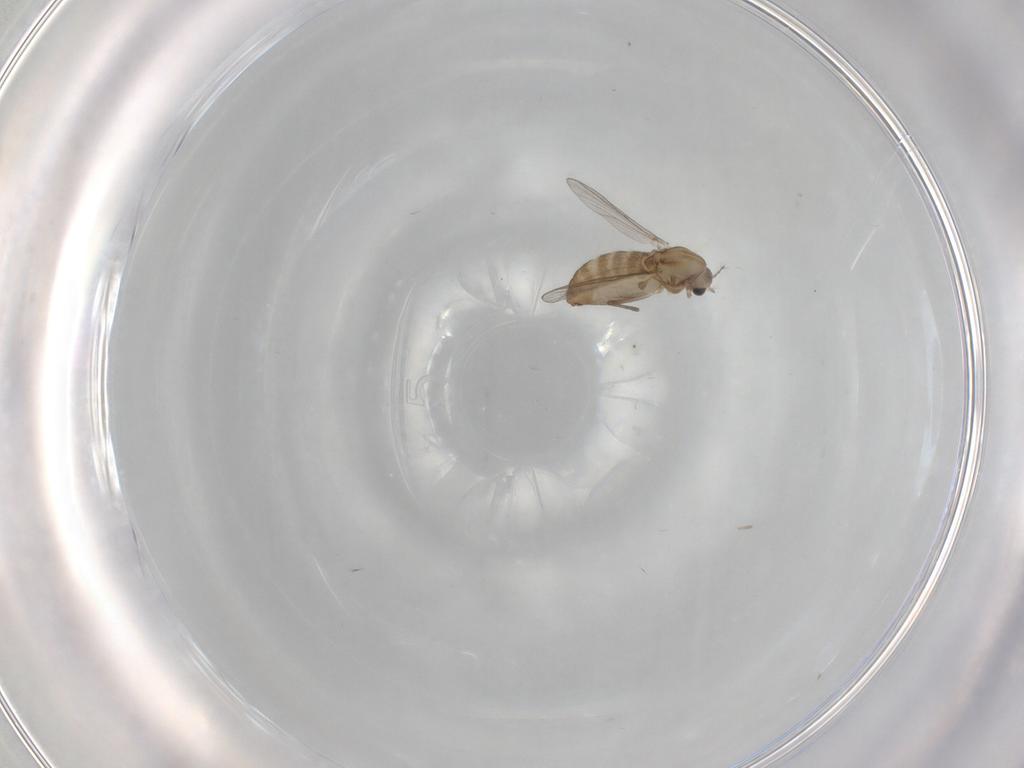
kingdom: Animalia
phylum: Arthropoda
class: Insecta
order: Diptera
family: Chironomidae
